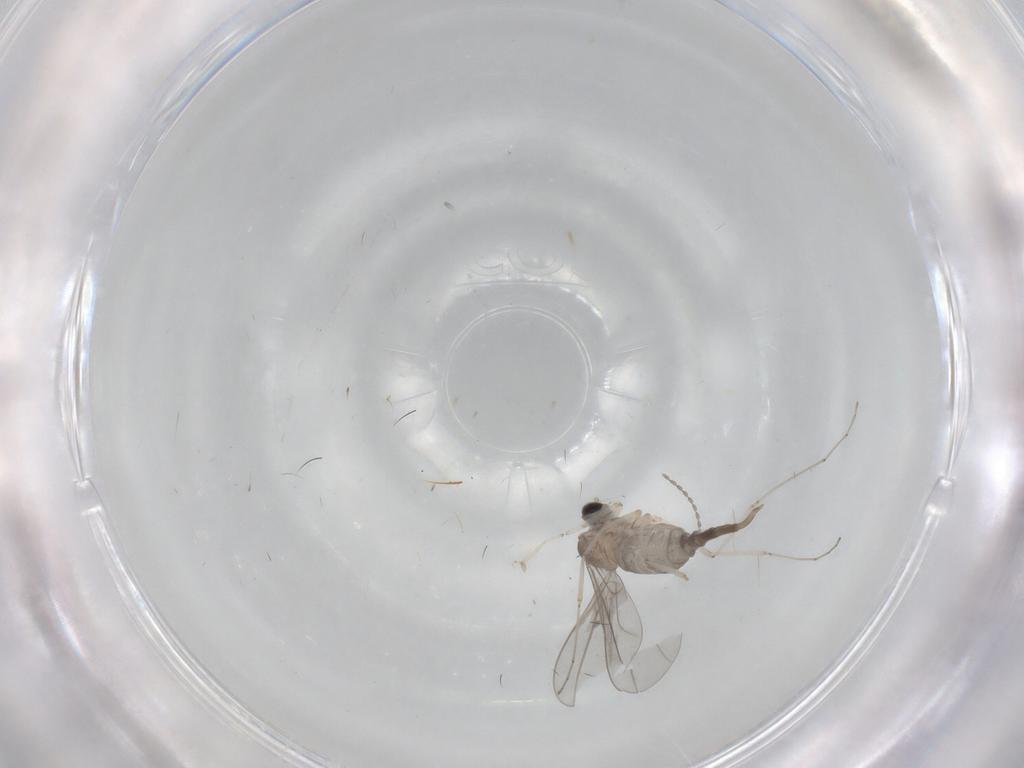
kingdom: Animalia
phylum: Arthropoda
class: Insecta
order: Diptera
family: Cecidomyiidae
